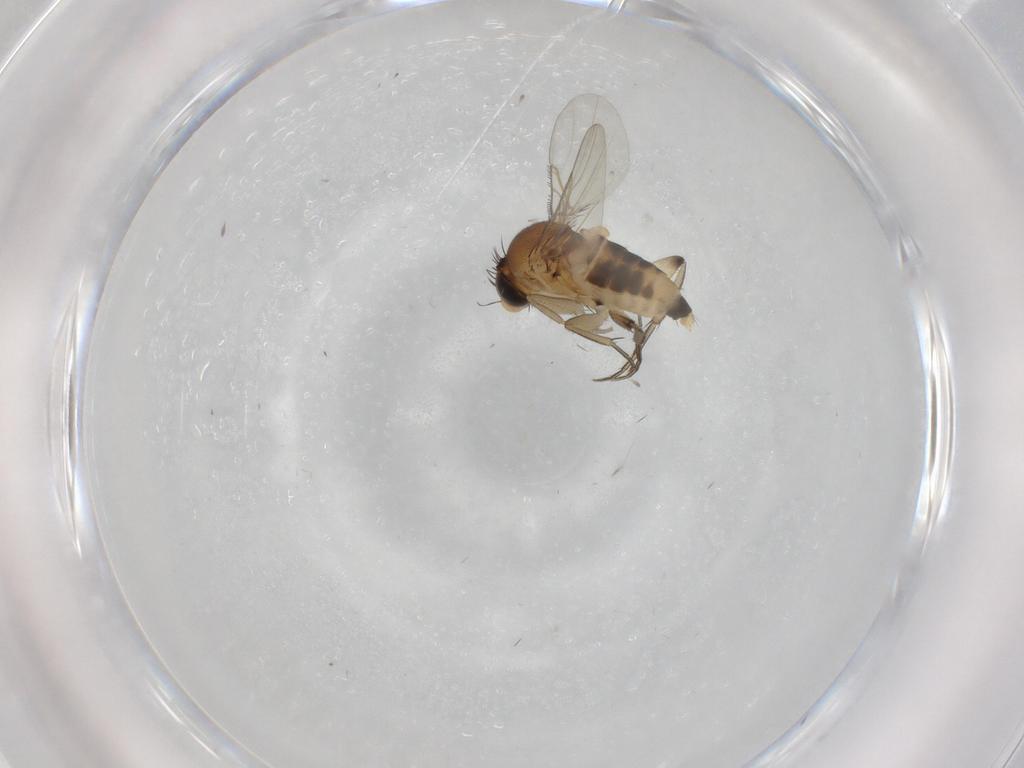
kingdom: Animalia
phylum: Arthropoda
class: Insecta
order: Diptera
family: Phoridae
